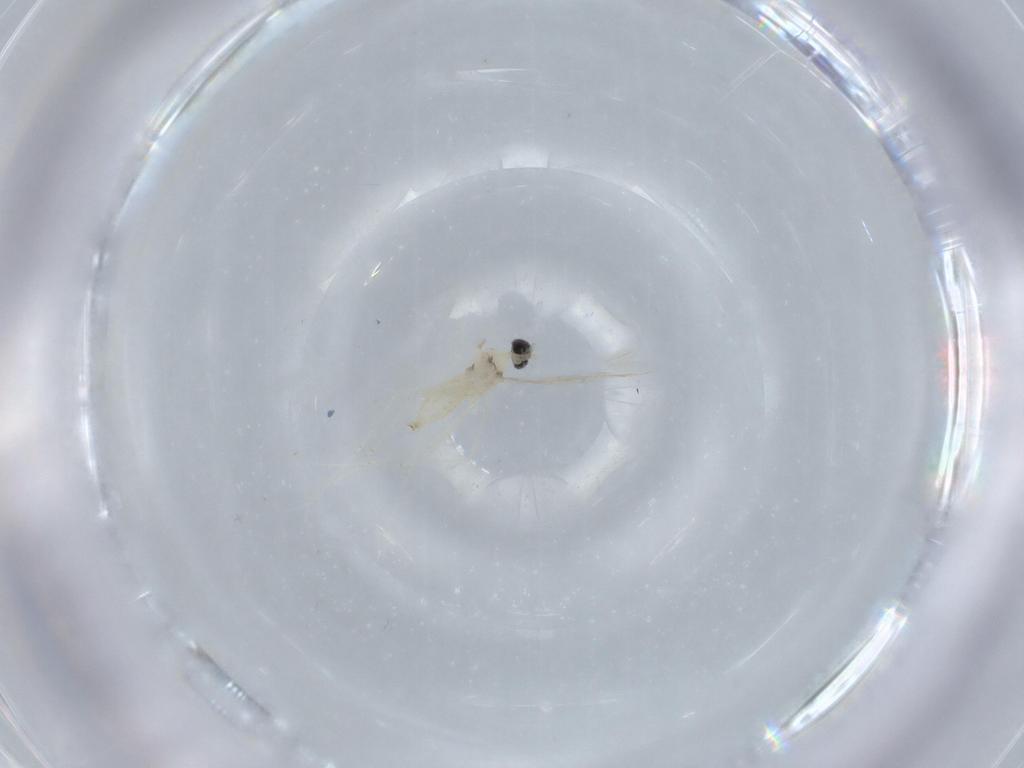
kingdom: Animalia
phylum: Arthropoda
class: Insecta
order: Diptera
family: Cecidomyiidae
